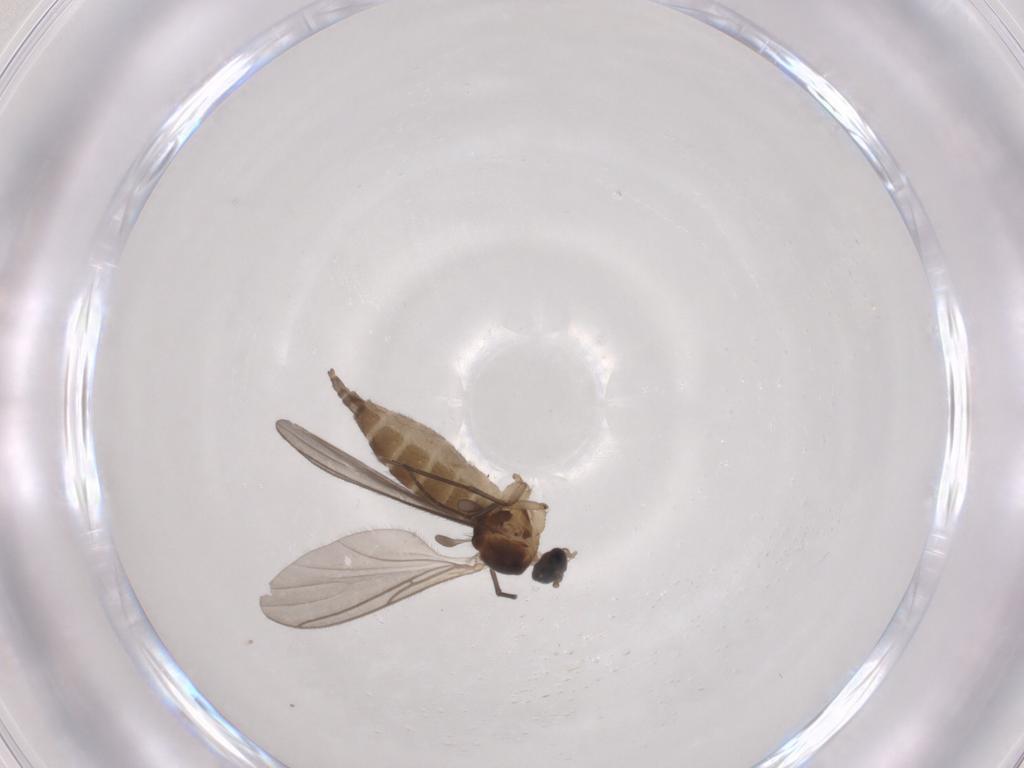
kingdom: Animalia
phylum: Arthropoda
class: Insecta
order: Diptera
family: Sciaridae
